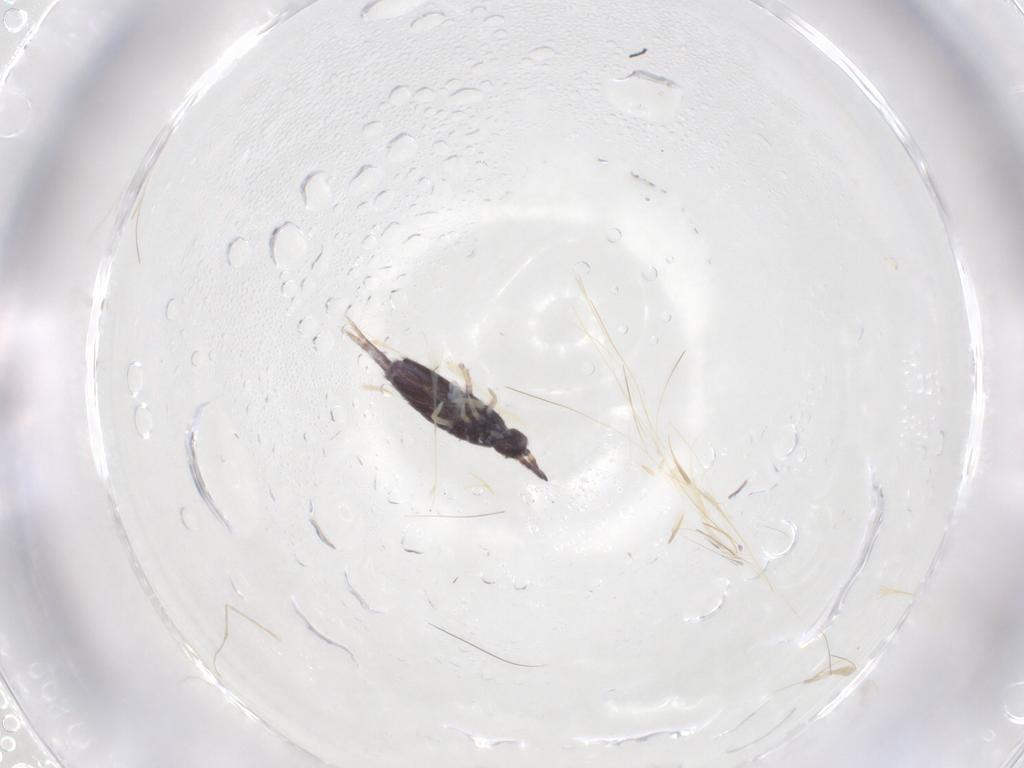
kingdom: Animalia
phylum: Arthropoda
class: Collembola
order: Entomobryomorpha
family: Entomobryidae
